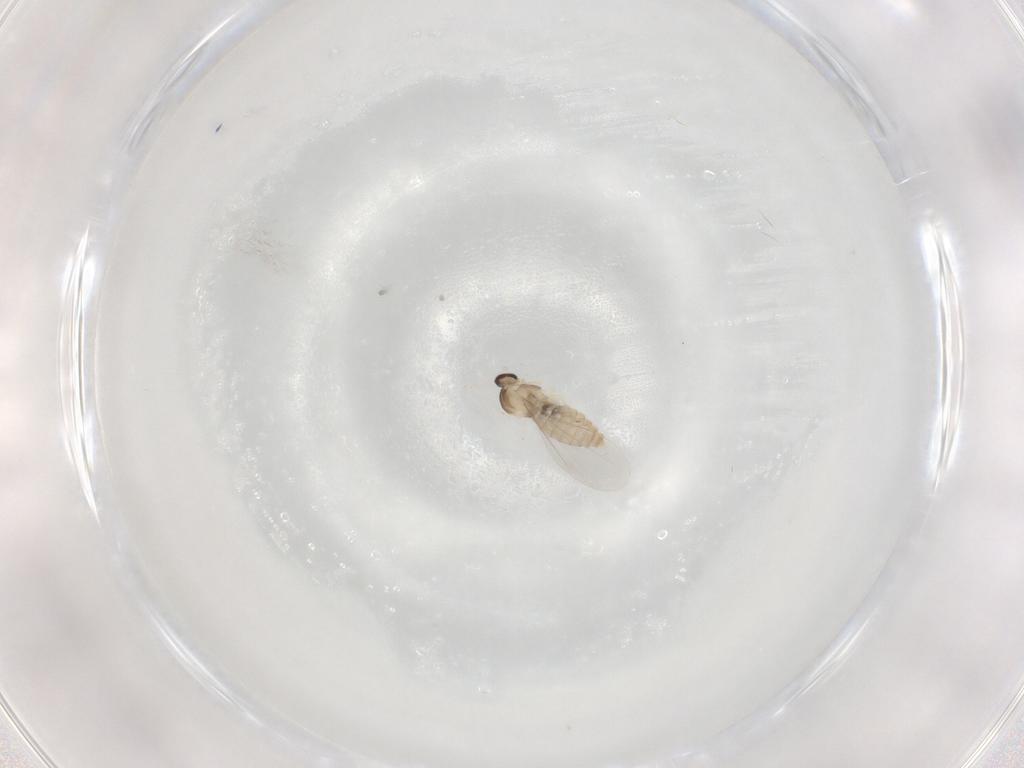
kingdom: Animalia
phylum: Arthropoda
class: Insecta
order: Diptera
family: Cecidomyiidae
